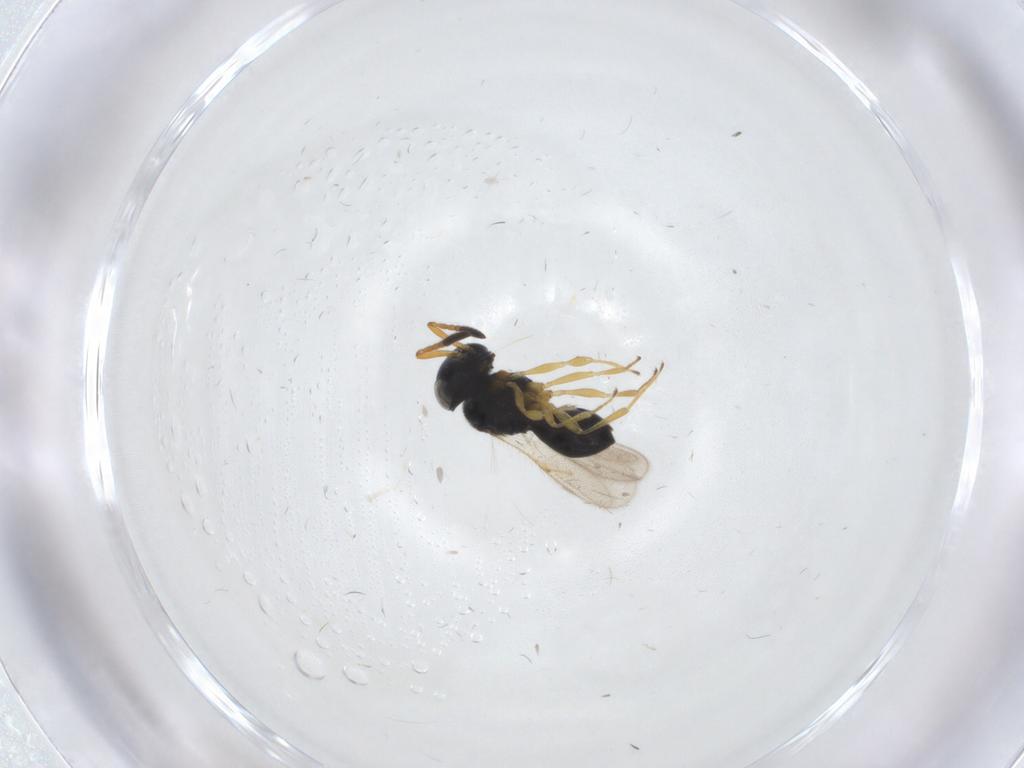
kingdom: Animalia
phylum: Arthropoda
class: Insecta
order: Hymenoptera
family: Scelionidae
